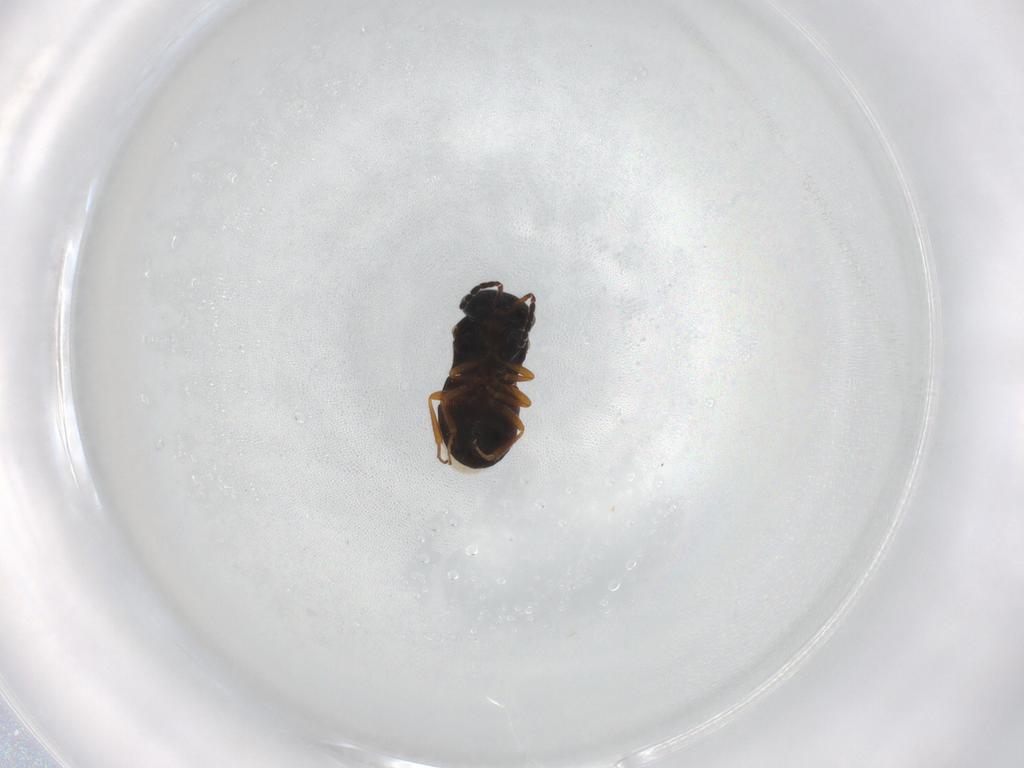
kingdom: Animalia
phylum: Arthropoda
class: Insecta
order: Hymenoptera
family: Scelionidae
